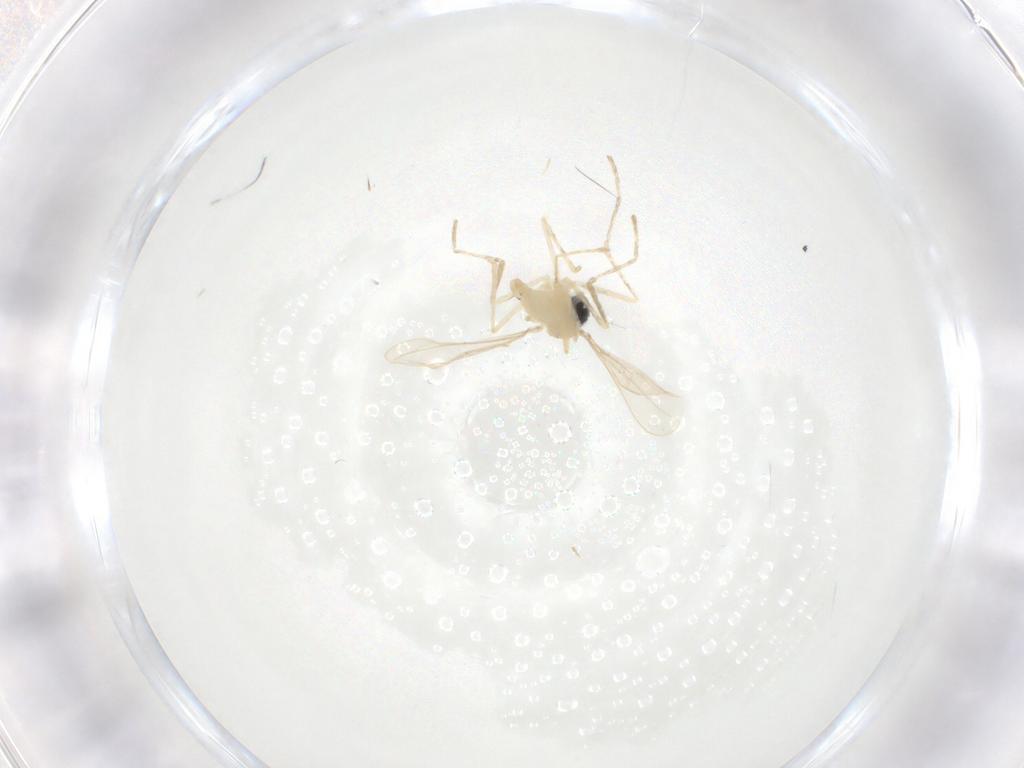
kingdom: Animalia
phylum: Arthropoda
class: Insecta
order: Diptera
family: Cecidomyiidae
